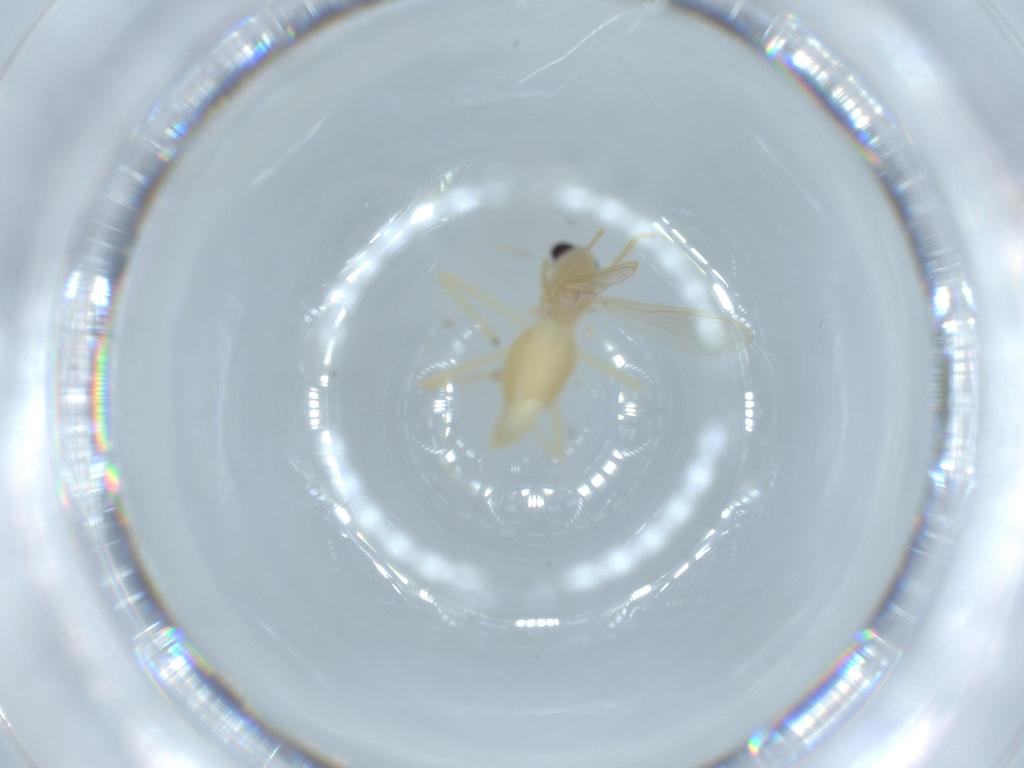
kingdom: Animalia
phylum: Arthropoda
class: Insecta
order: Diptera
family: Chironomidae
